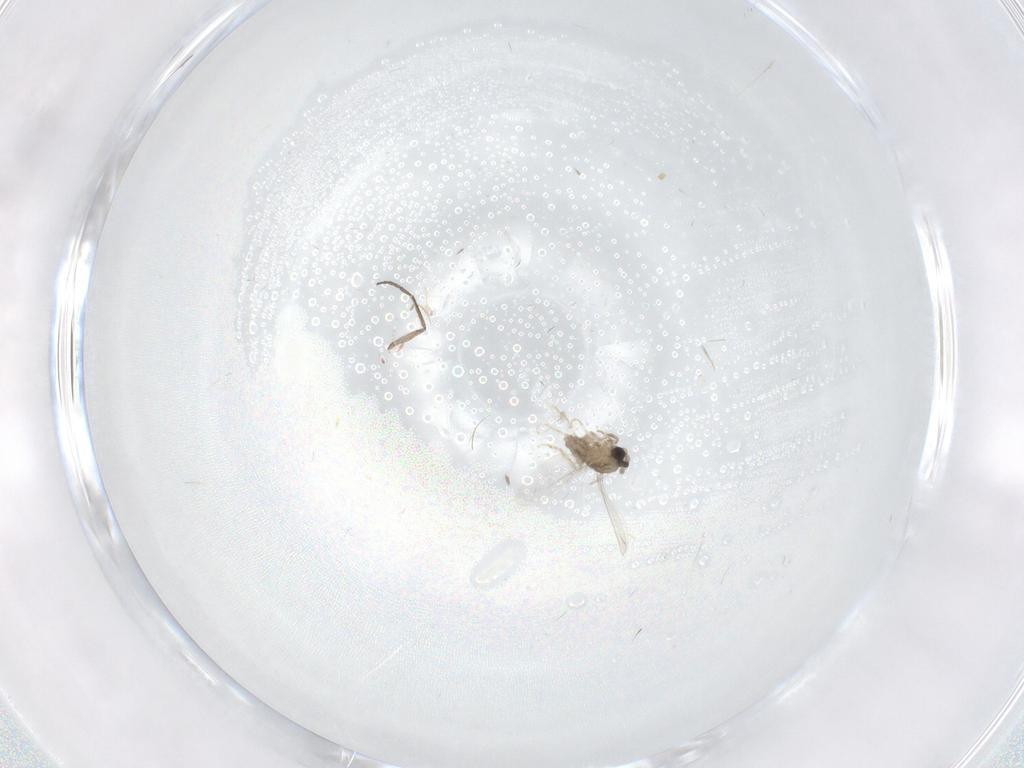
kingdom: Animalia
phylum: Arthropoda
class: Insecta
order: Diptera
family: Cecidomyiidae
